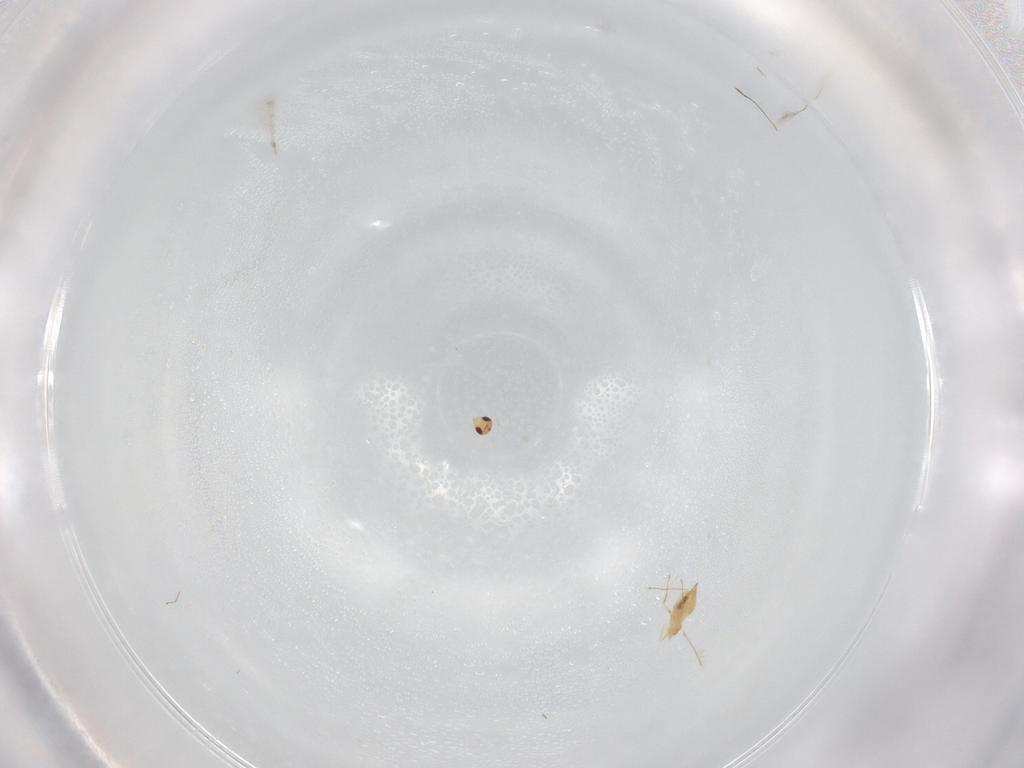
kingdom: Animalia
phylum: Arthropoda
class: Insecta
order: Hymenoptera
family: Mymaridae
